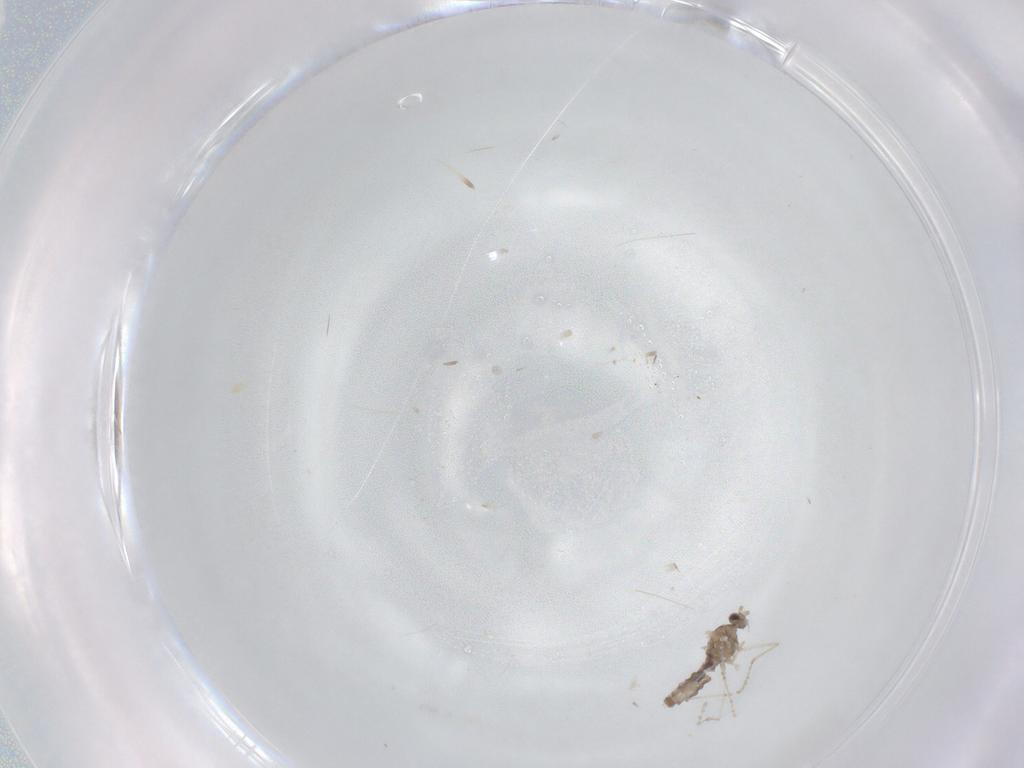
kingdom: Animalia
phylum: Arthropoda
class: Insecta
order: Diptera
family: Cecidomyiidae
